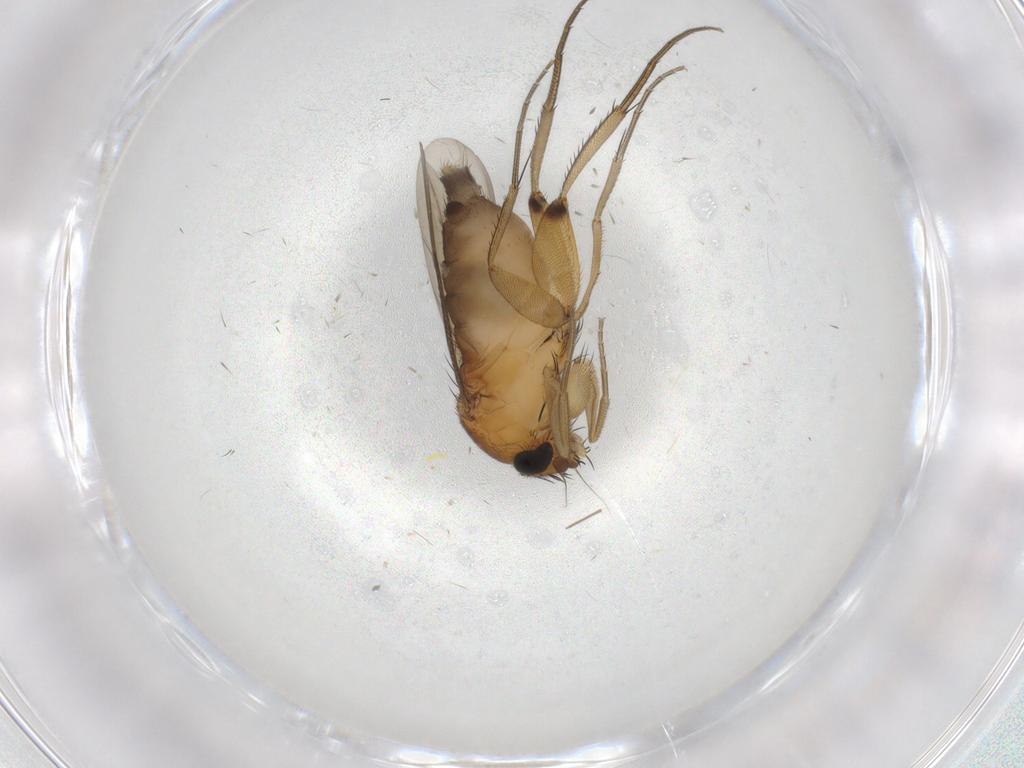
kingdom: Animalia
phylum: Arthropoda
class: Insecta
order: Diptera
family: Phoridae
